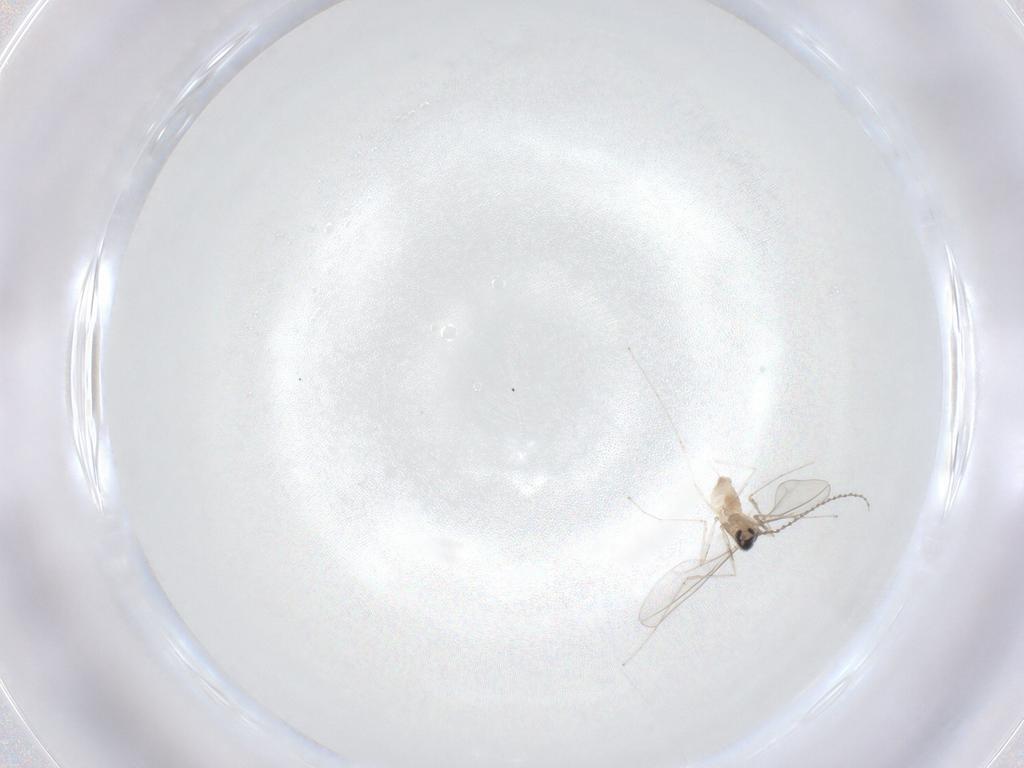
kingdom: Animalia
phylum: Arthropoda
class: Insecta
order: Diptera
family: Cecidomyiidae
